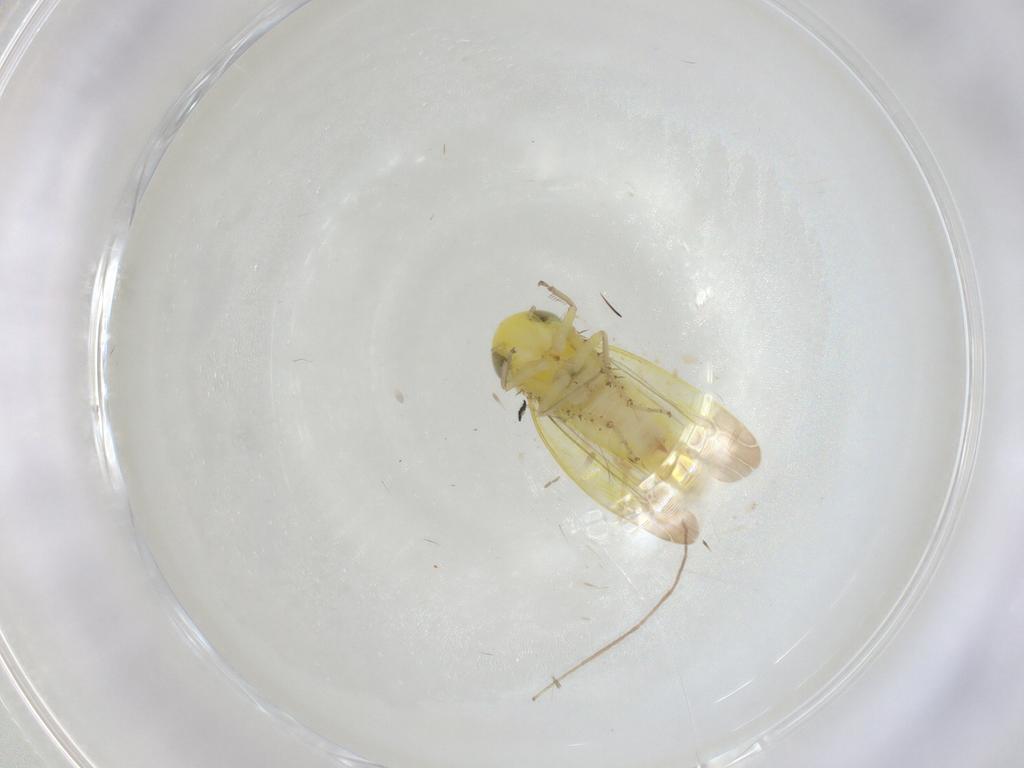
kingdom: Animalia
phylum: Arthropoda
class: Insecta
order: Hemiptera
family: Cicadellidae
